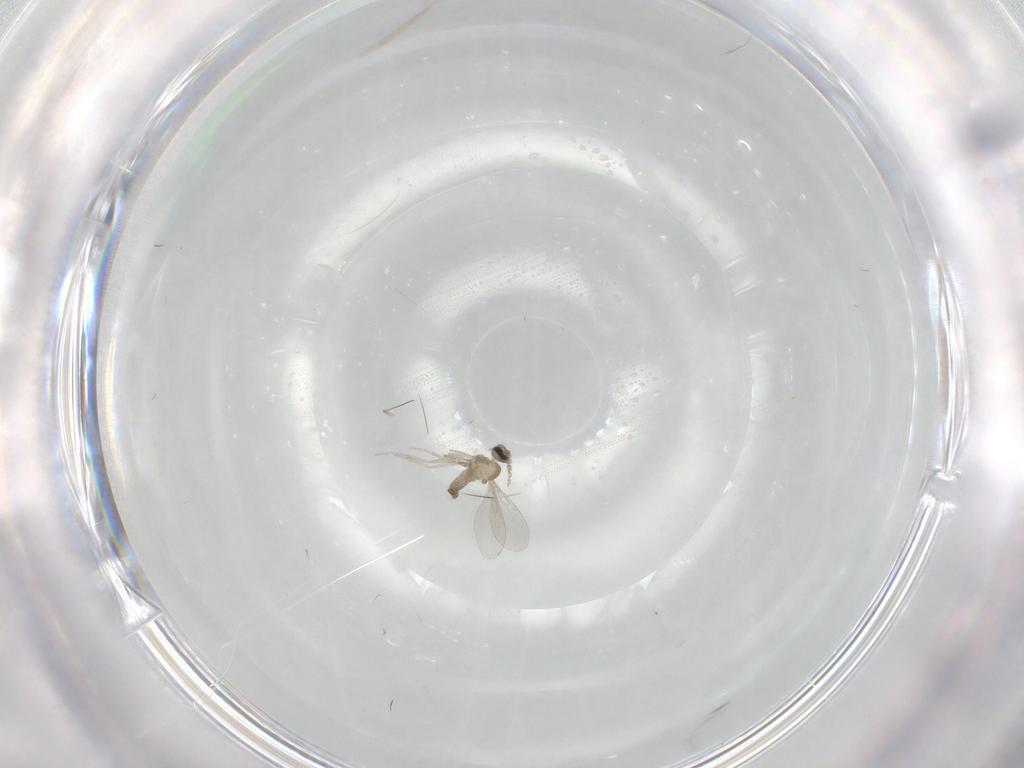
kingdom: Animalia
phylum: Arthropoda
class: Insecta
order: Diptera
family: Cecidomyiidae
